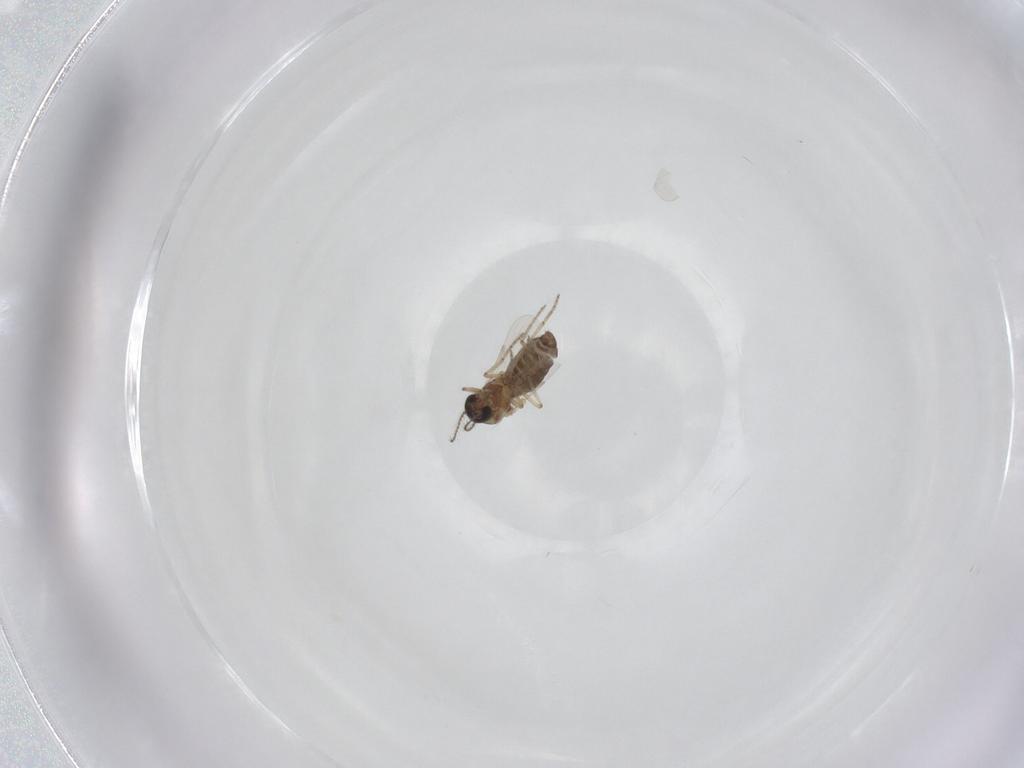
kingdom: Animalia
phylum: Arthropoda
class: Insecta
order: Diptera
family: Ceratopogonidae
